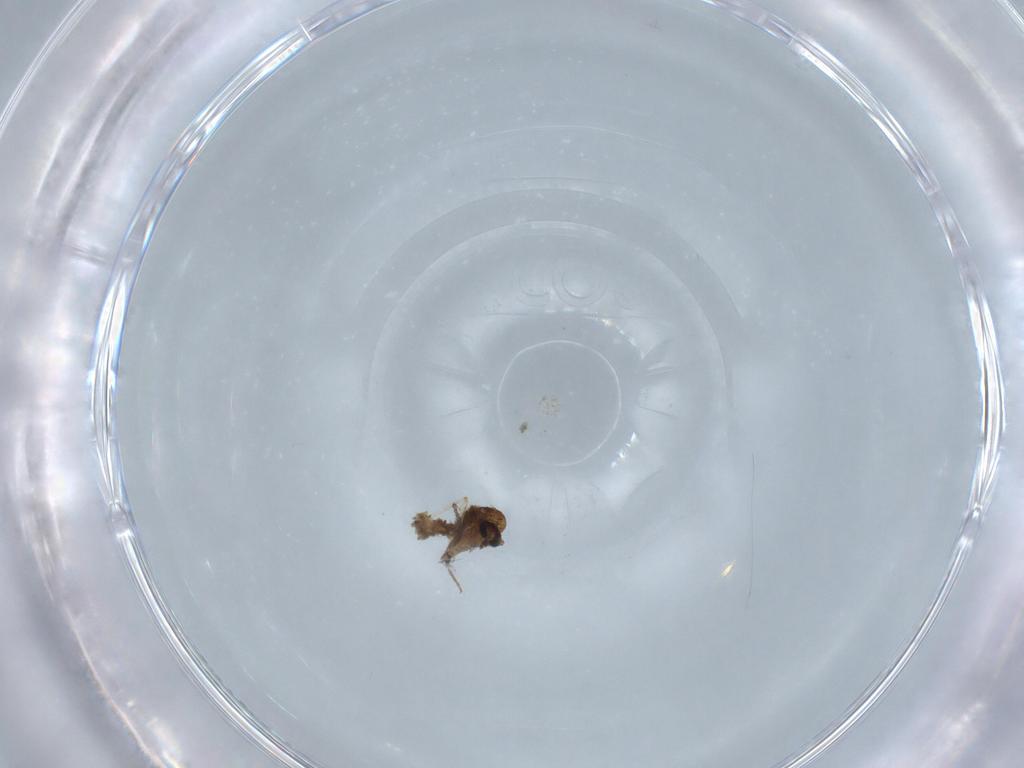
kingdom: Animalia
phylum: Arthropoda
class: Insecta
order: Diptera
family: Psychodidae
